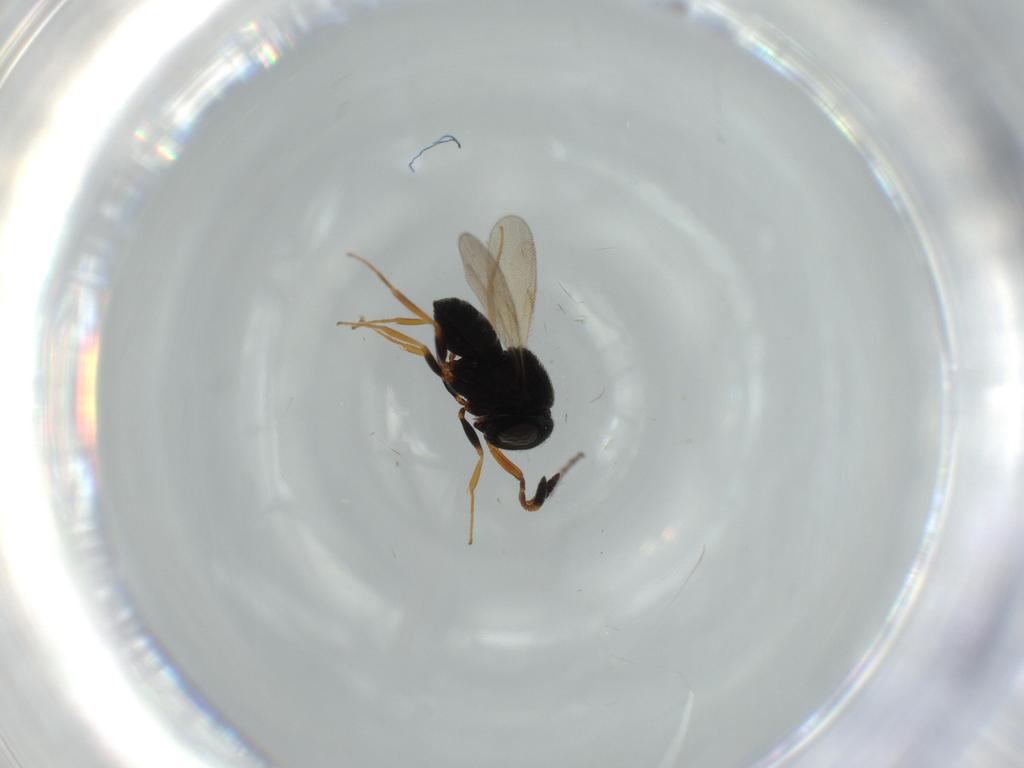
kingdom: Animalia
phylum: Arthropoda
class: Insecta
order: Hymenoptera
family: Scelionidae
